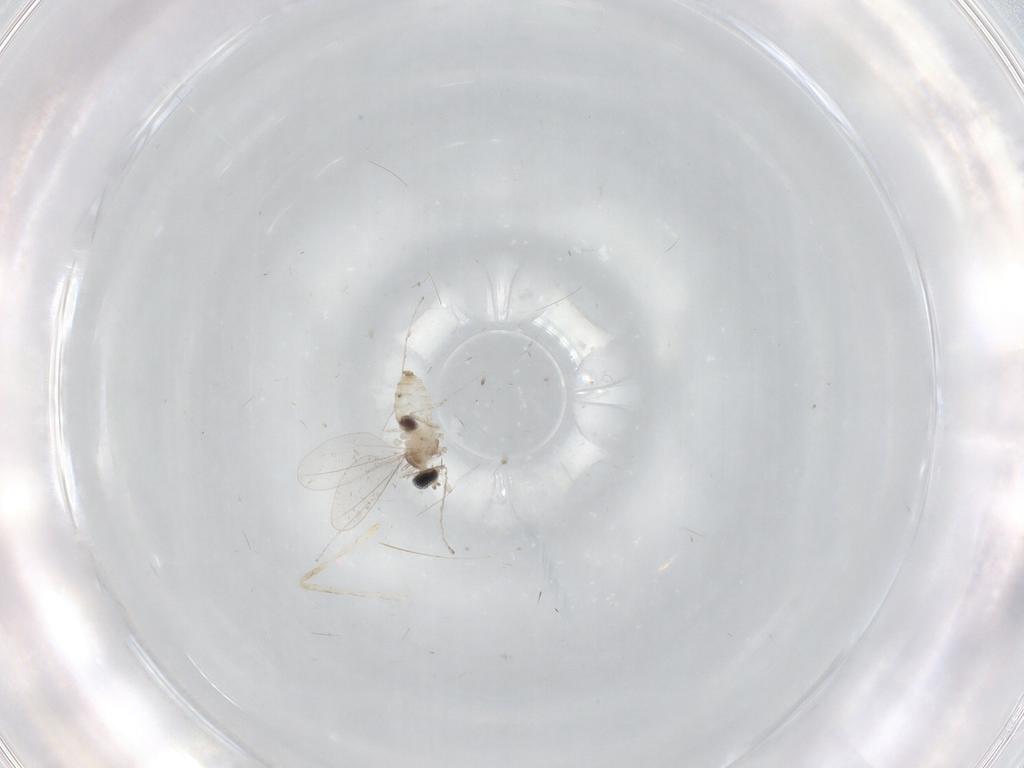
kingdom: Animalia
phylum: Arthropoda
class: Insecta
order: Diptera
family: Cecidomyiidae
